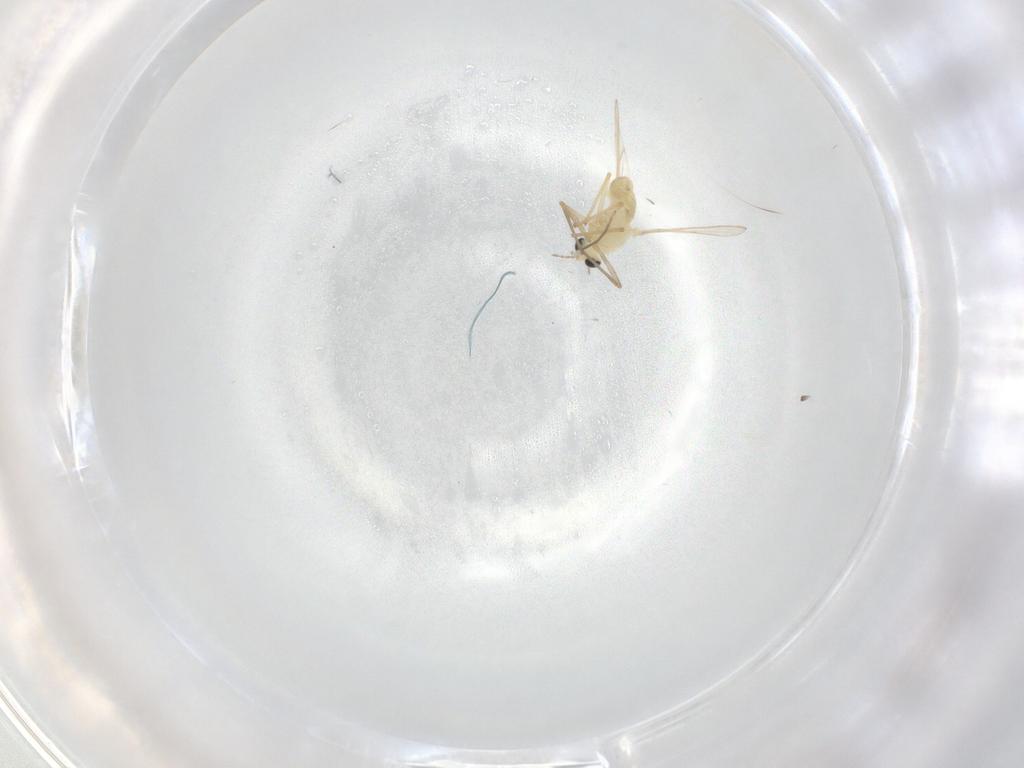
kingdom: Animalia
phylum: Arthropoda
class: Insecta
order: Diptera
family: Chironomidae
